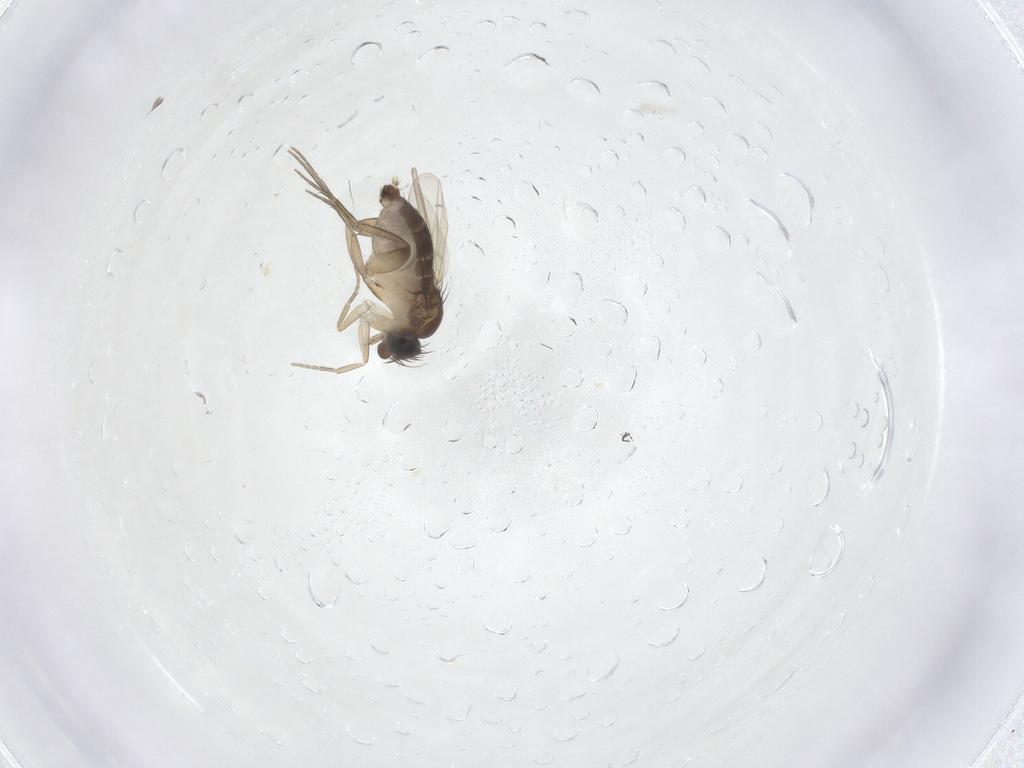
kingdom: Animalia
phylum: Arthropoda
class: Insecta
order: Diptera
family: Phoridae
